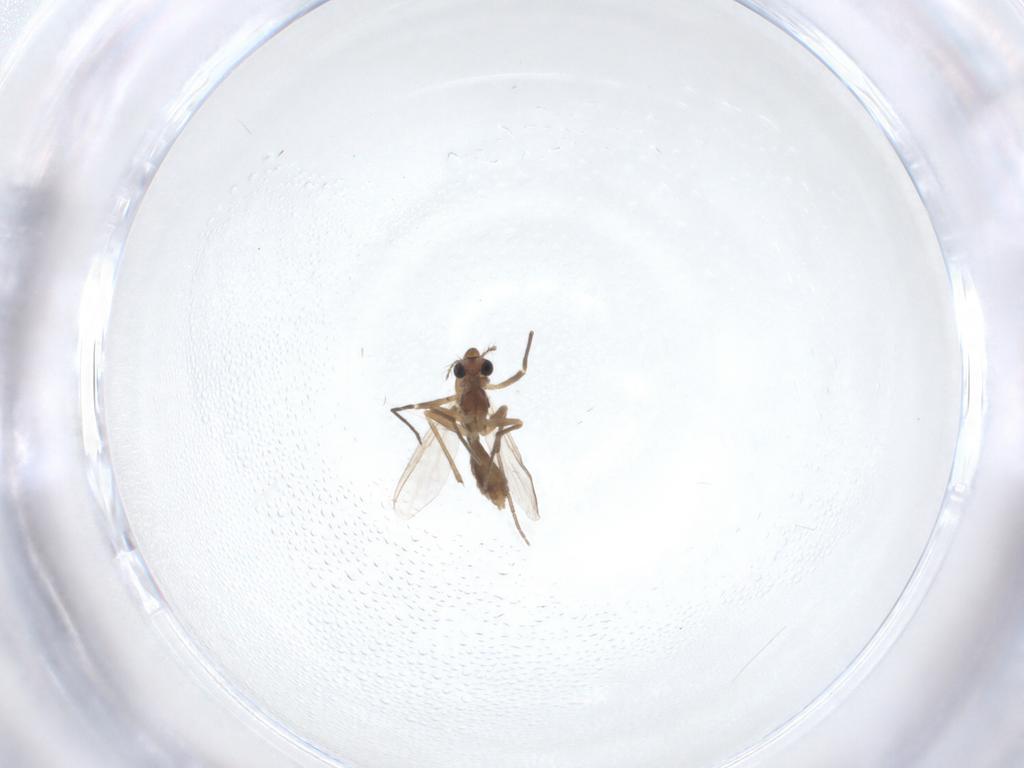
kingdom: Animalia
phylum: Arthropoda
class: Insecta
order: Diptera
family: Chironomidae
